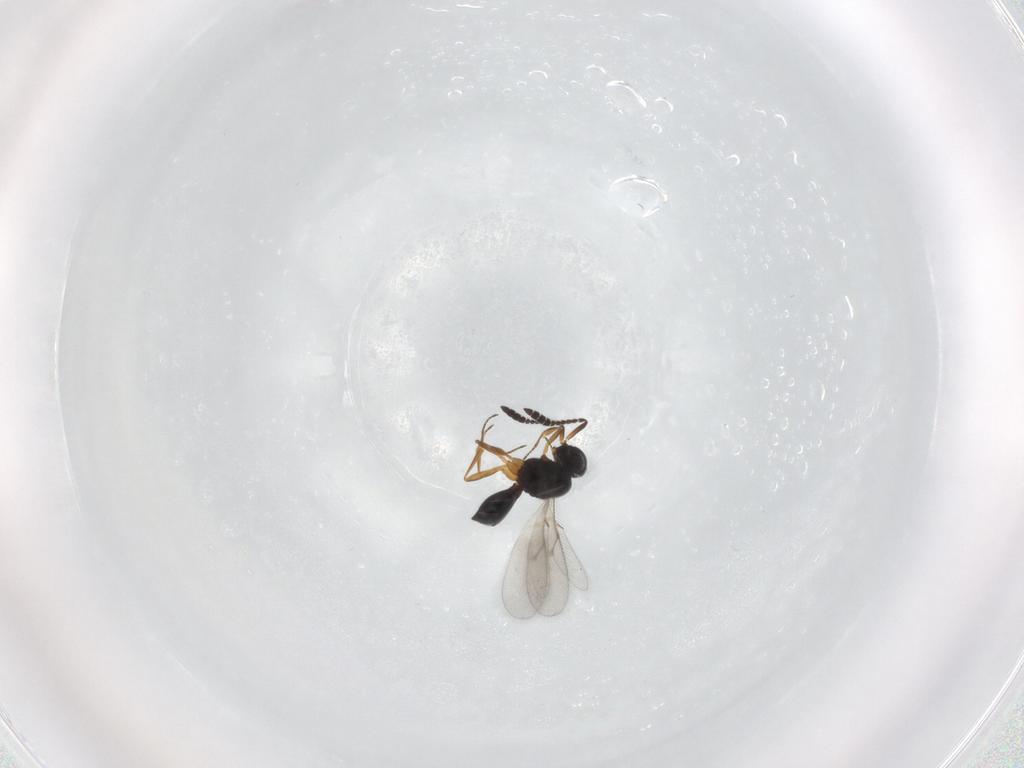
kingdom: Animalia
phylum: Arthropoda
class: Insecta
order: Hymenoptera
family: Scelionidae
